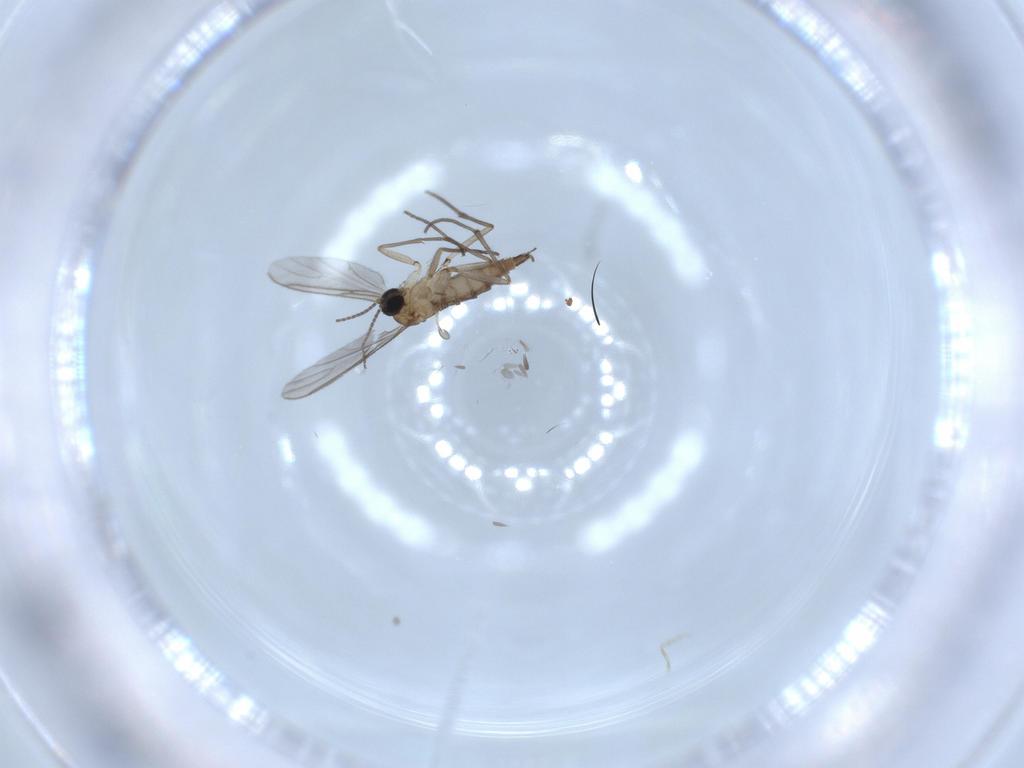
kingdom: Animalia
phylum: Arthropoda
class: Insecta
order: Diptera
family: Sciaridae
